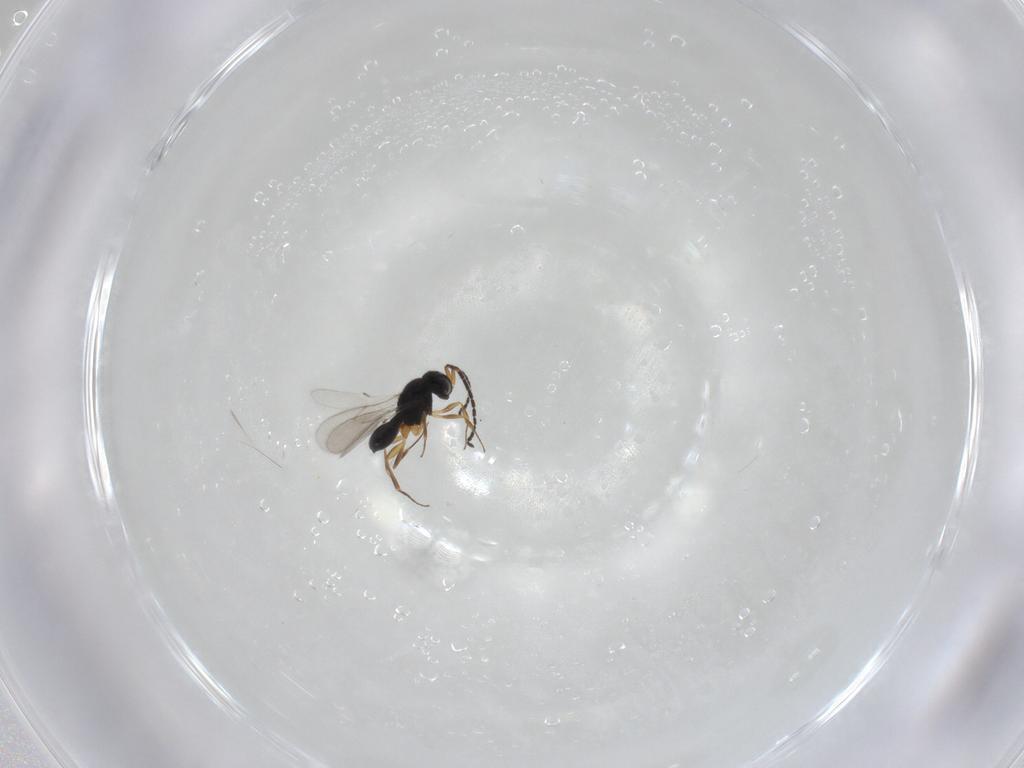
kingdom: Animalia
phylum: Arthropoda
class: Insecta
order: Hymenoptera
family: Scelionidae
